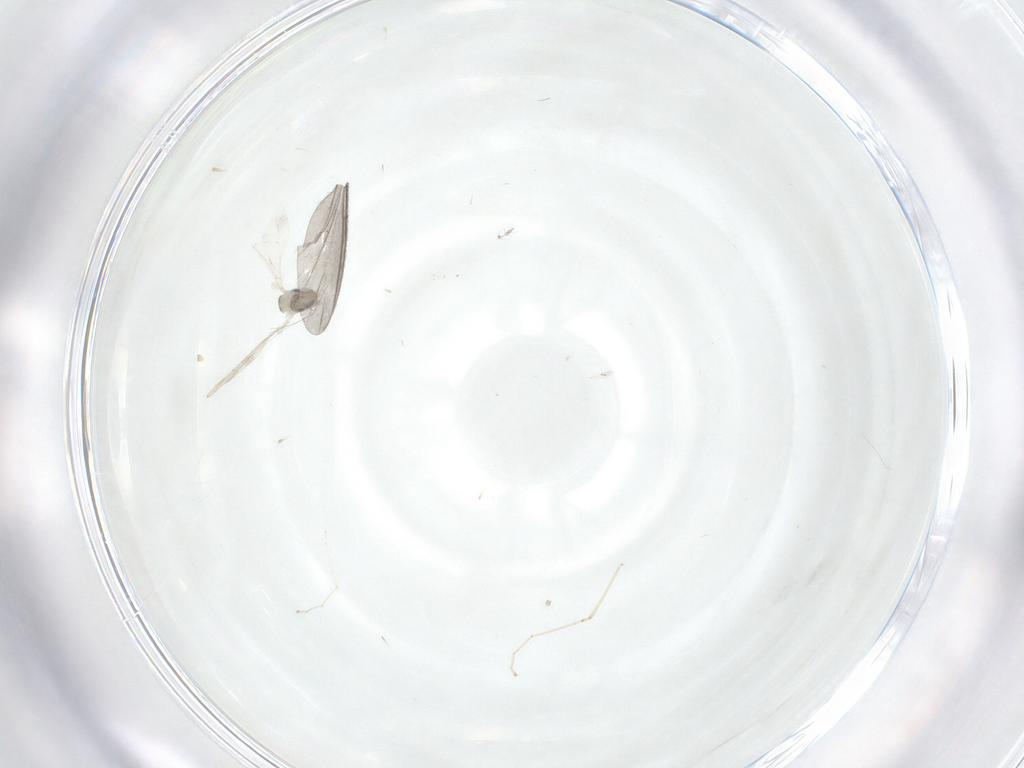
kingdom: Animalia
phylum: Arthropoda
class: Insecta
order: Diptera
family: Cecidomyiidae
